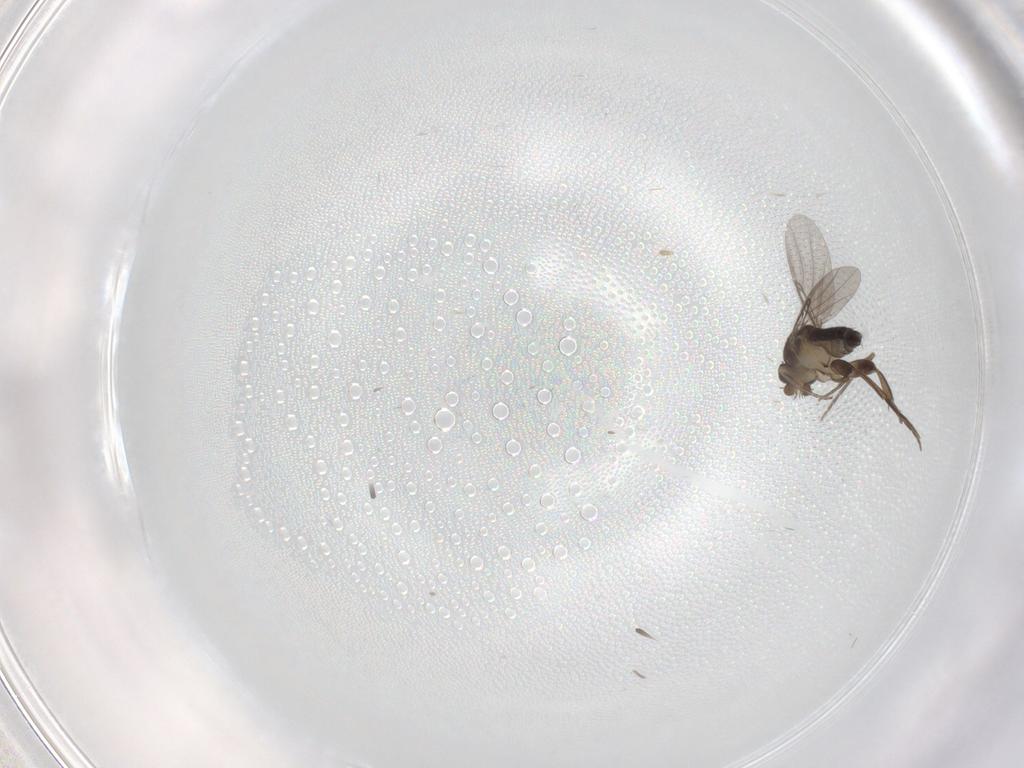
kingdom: Animalia
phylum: Arthropoda
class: Insecta
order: Diptera
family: Phoridae
